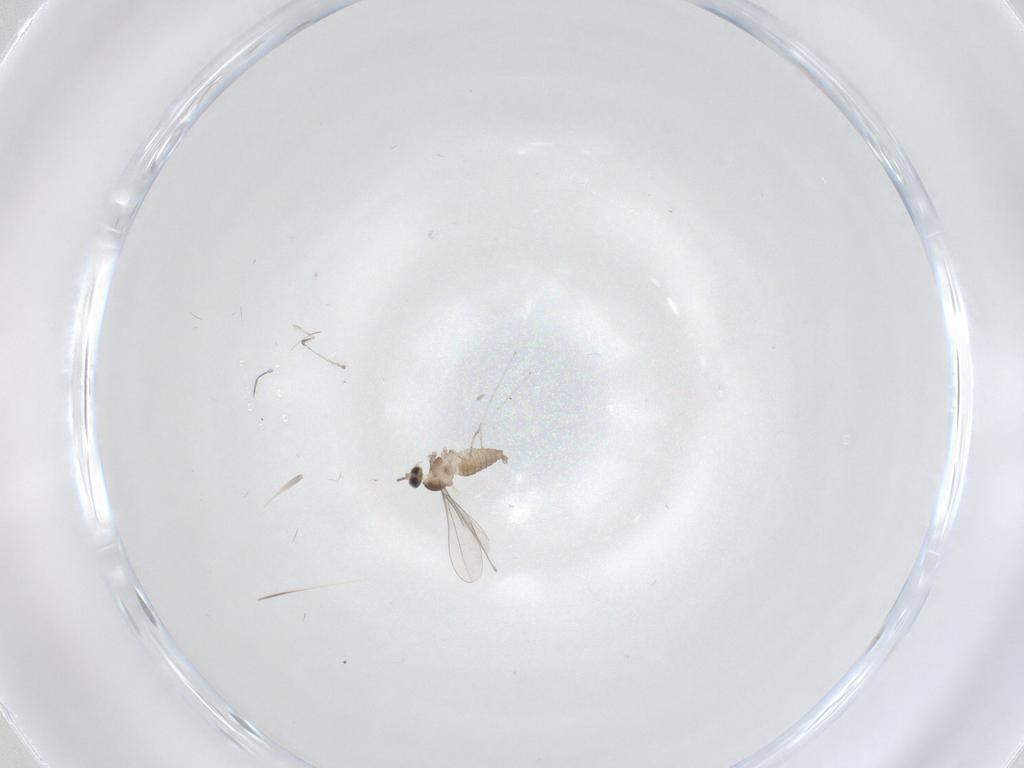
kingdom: Animalia
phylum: Arthropoda
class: Insecta
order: Diptera
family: Cecidomyiidae
